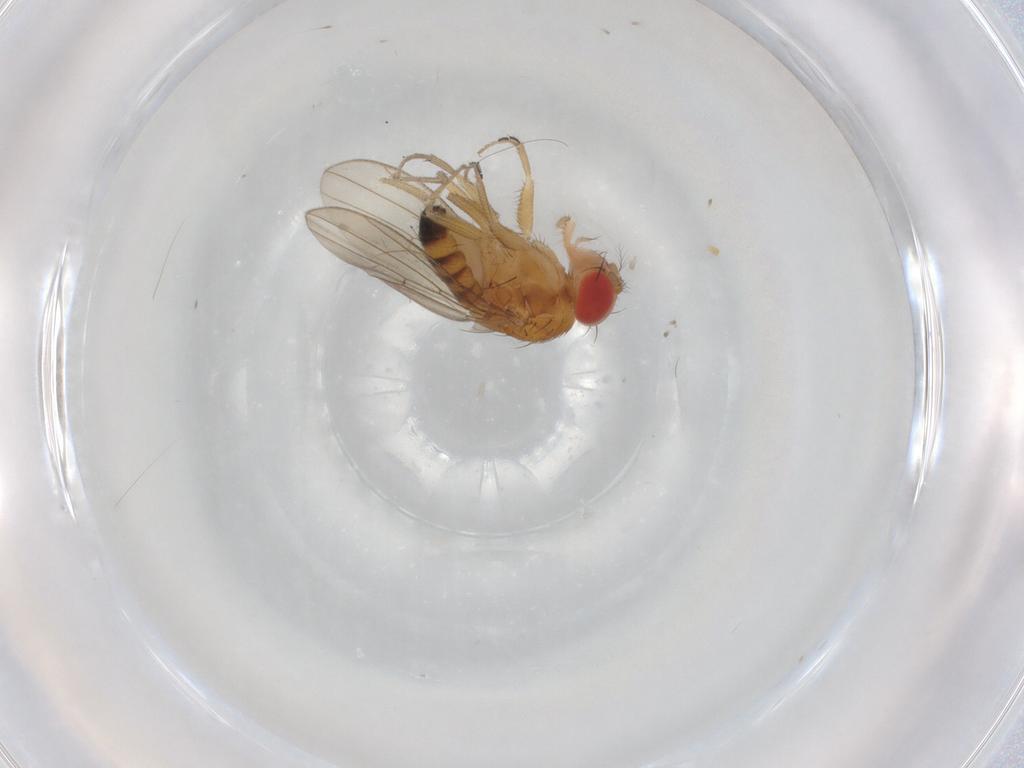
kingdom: Animalia
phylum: Arthropoda
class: Insecta
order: Diptera
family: Drosophilidae
